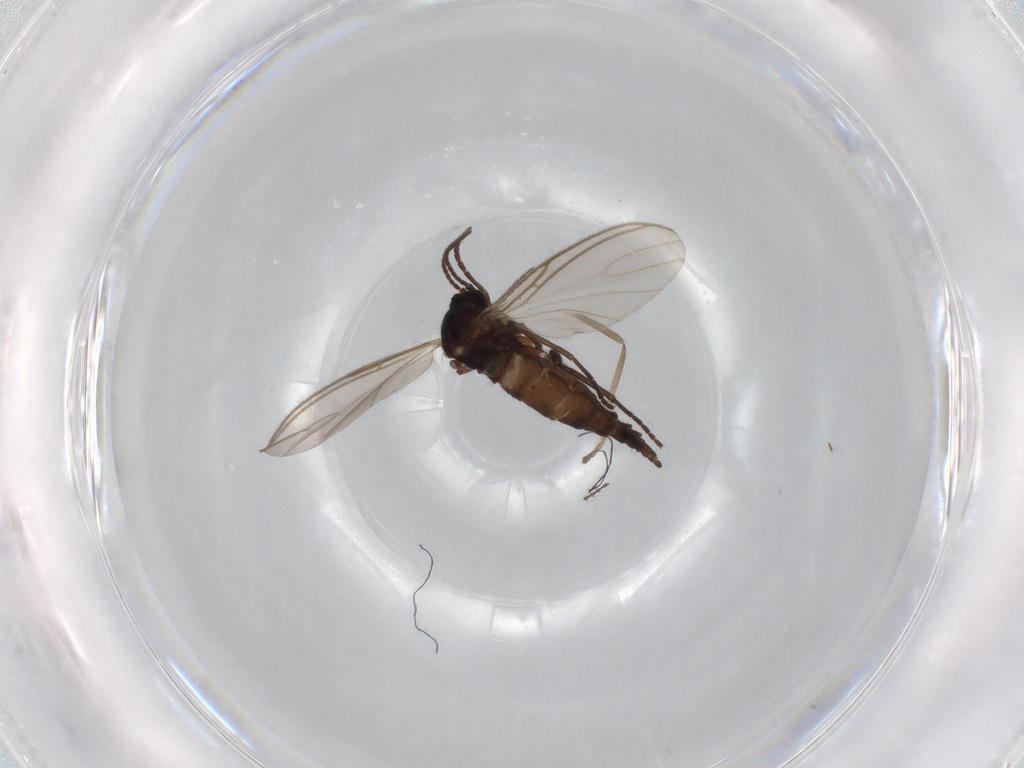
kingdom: Animalia
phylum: Arthropoda
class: Insecta
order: Diptera
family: Sciaridae
